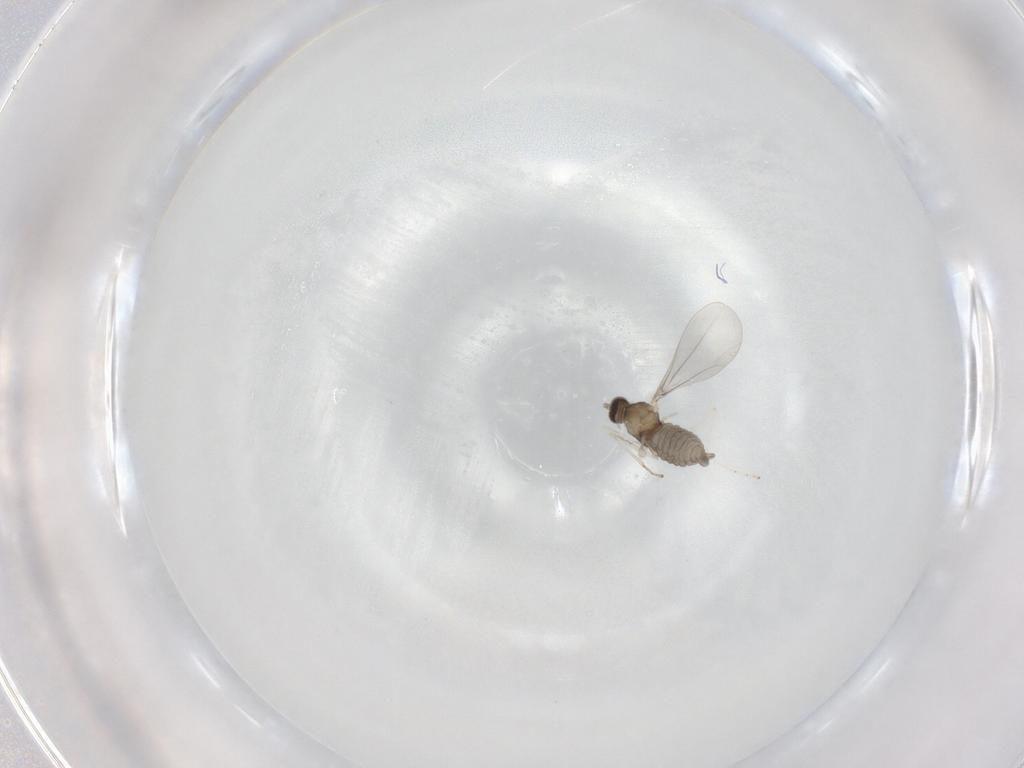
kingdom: Animalia
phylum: Arthropoda
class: Insecta
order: Diptera
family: Cecidomyiidae
